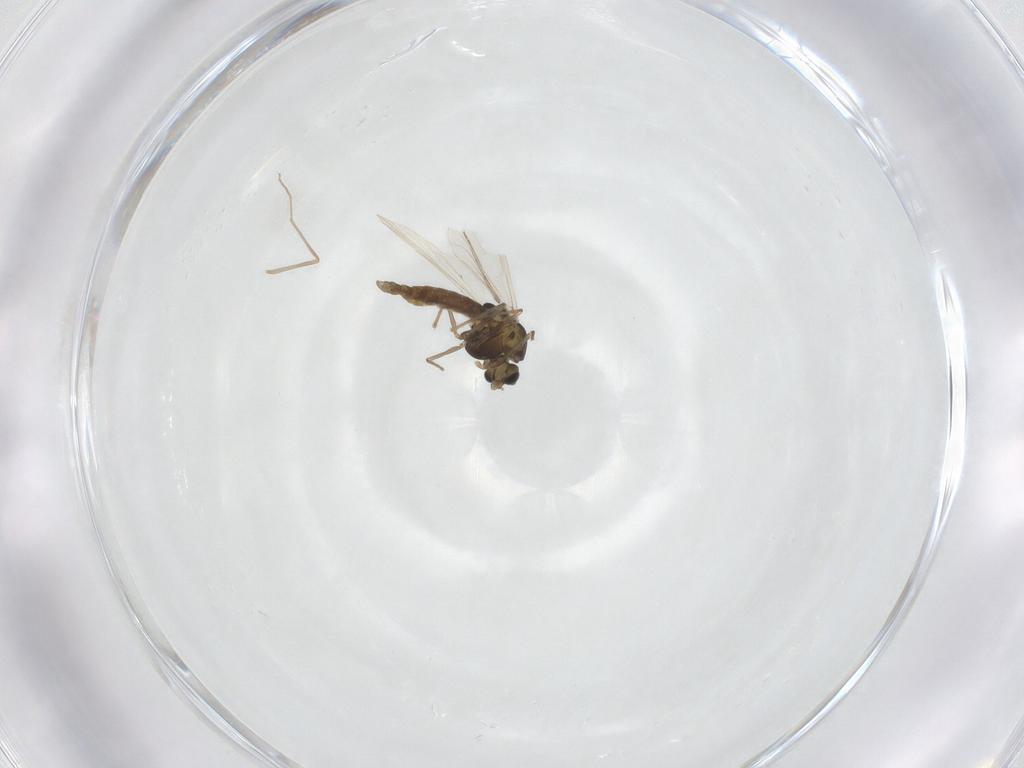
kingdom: Animalia
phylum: Arthropoda
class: Insecta
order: Diptera
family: Chironomidae
